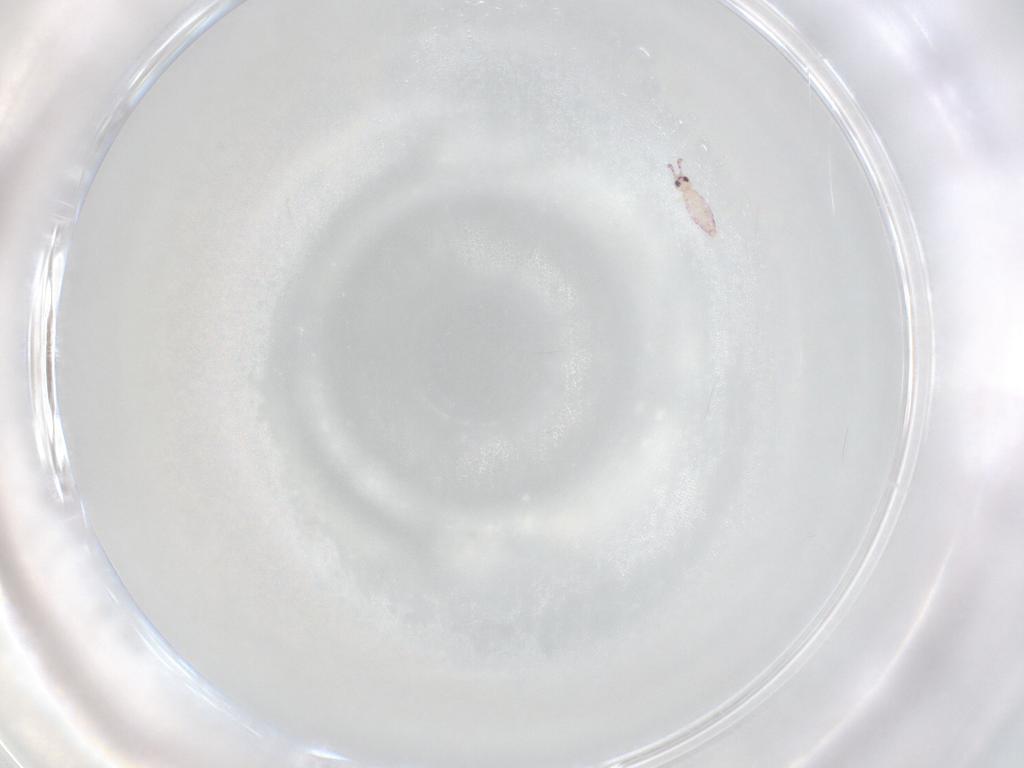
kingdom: Animalia
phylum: Arthropoda
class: Collembola
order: Entomobryomorpha
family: Entomobryidae
